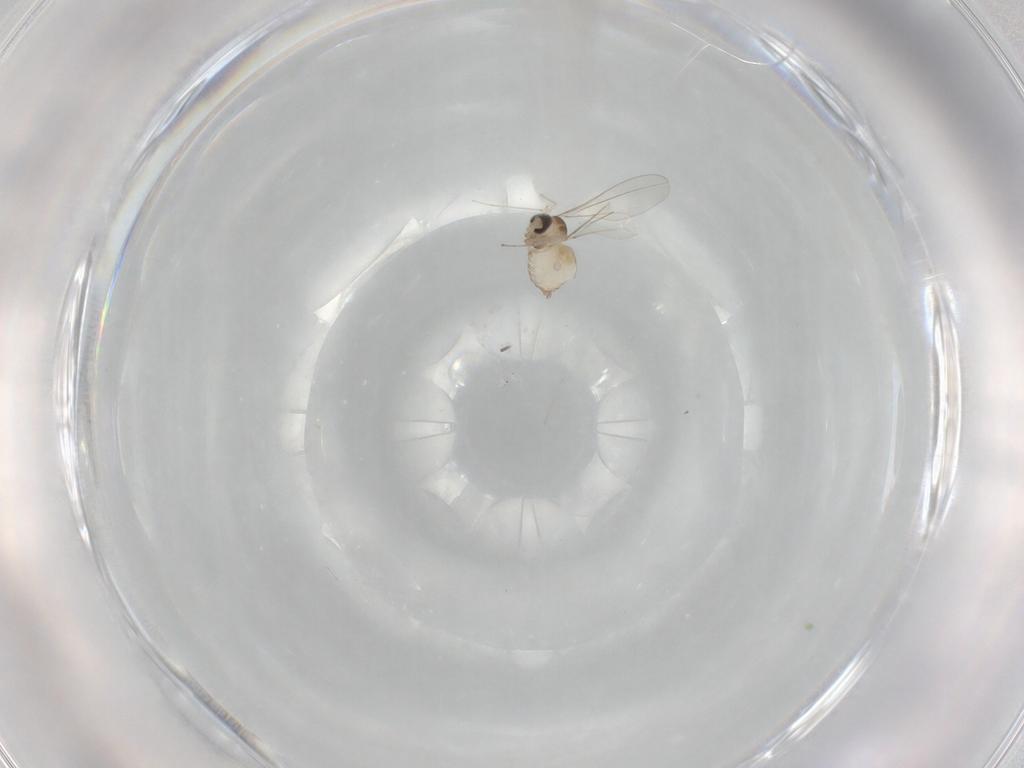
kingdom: Animalia
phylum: Arthropoda
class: Insecta
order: Diptera
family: Cecidomyiidae
